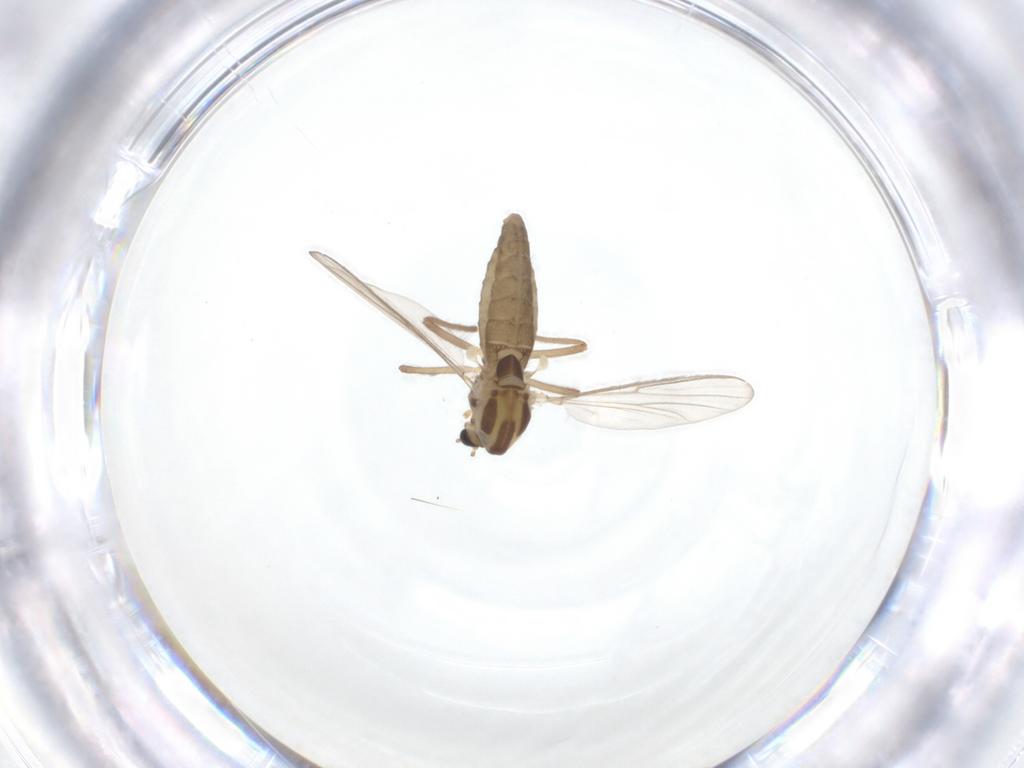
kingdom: Animalia
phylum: Arthropoda
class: Insecta
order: Diptera
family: Chironomidae
